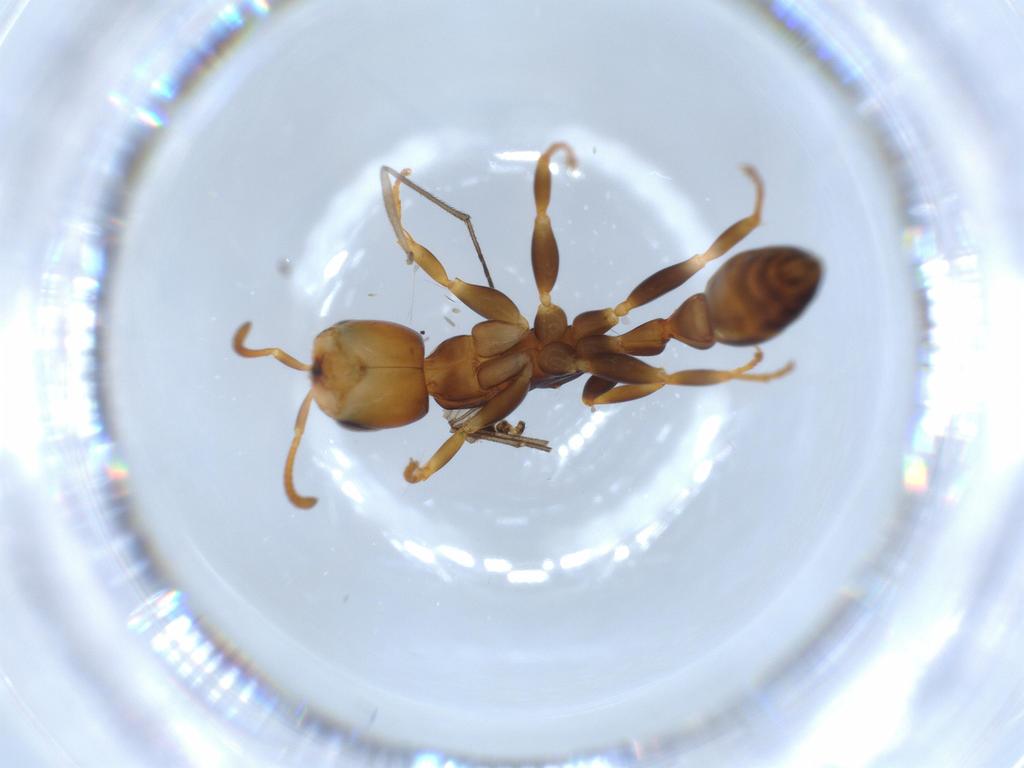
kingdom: Animalia
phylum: Arthropoda
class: Insecta
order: Hymenoptera
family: Formicidae
